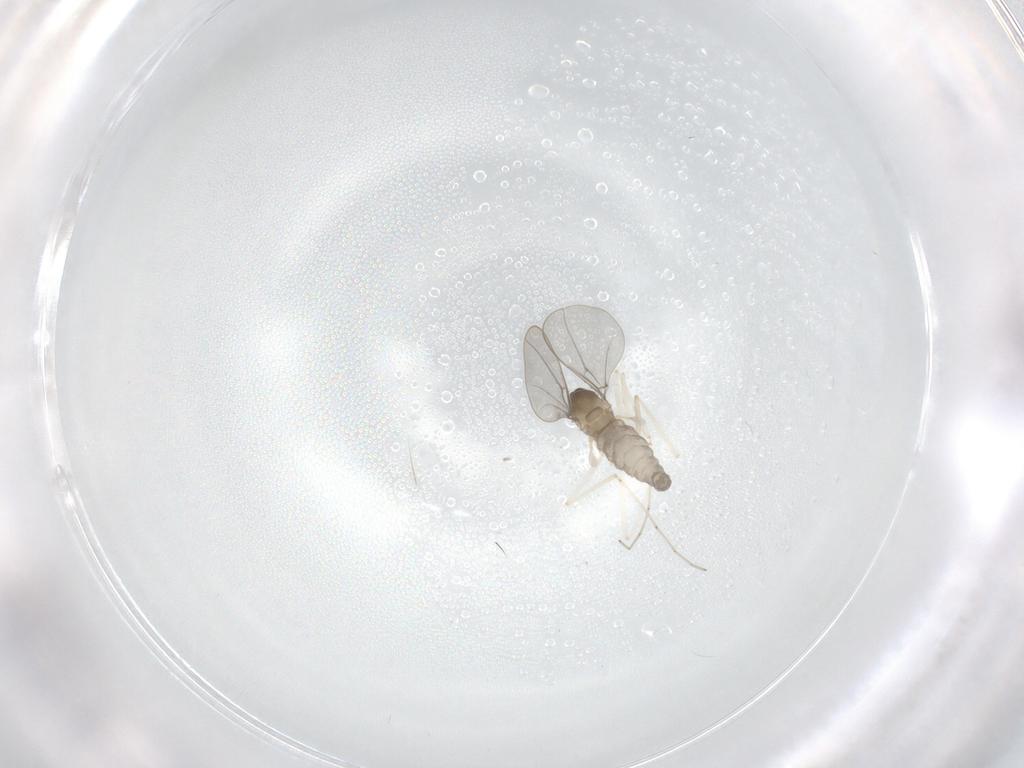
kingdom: Animalia
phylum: Arthropoda
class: Insecta
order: Diptera
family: Cecidomyiidae
